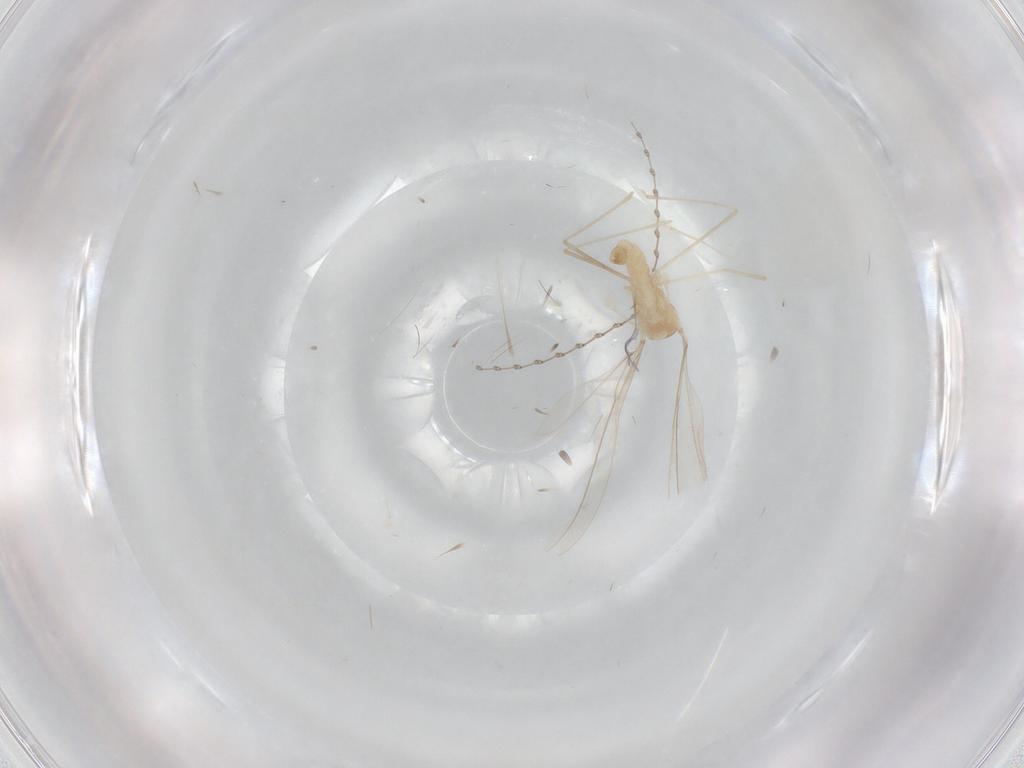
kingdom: Animalia
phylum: Arthropoda
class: Insecta
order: Diptera
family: Cecidomyiidae
